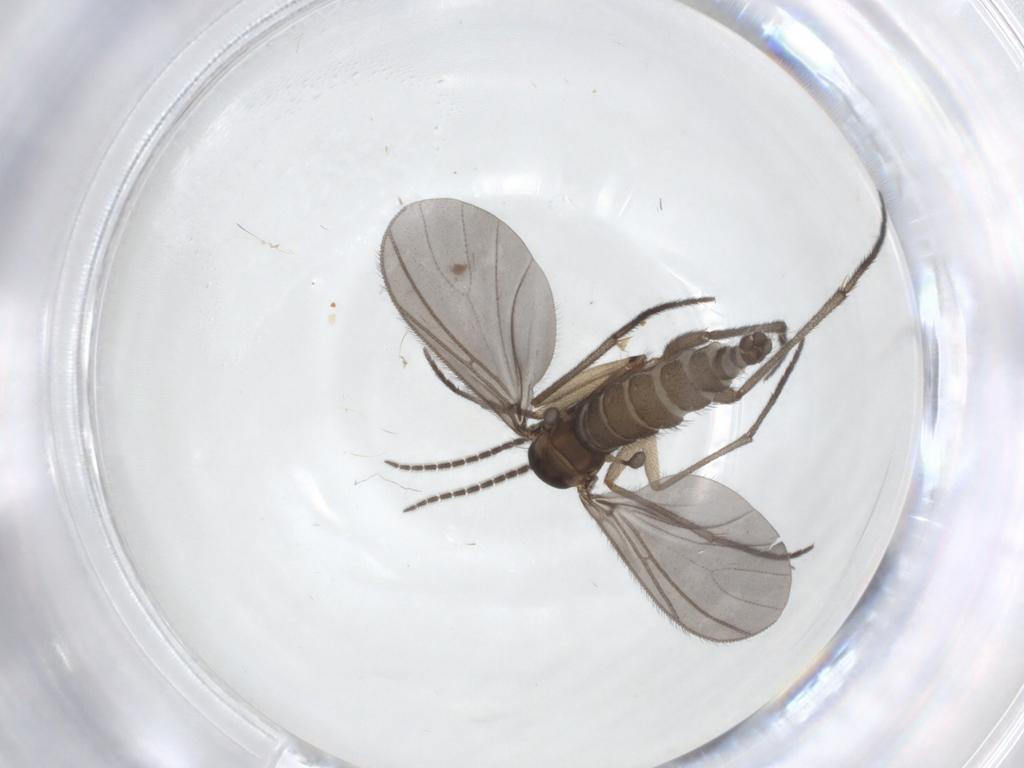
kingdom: Animalia
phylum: Arthropoda
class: Insecta
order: Diptera
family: Sciaridae
